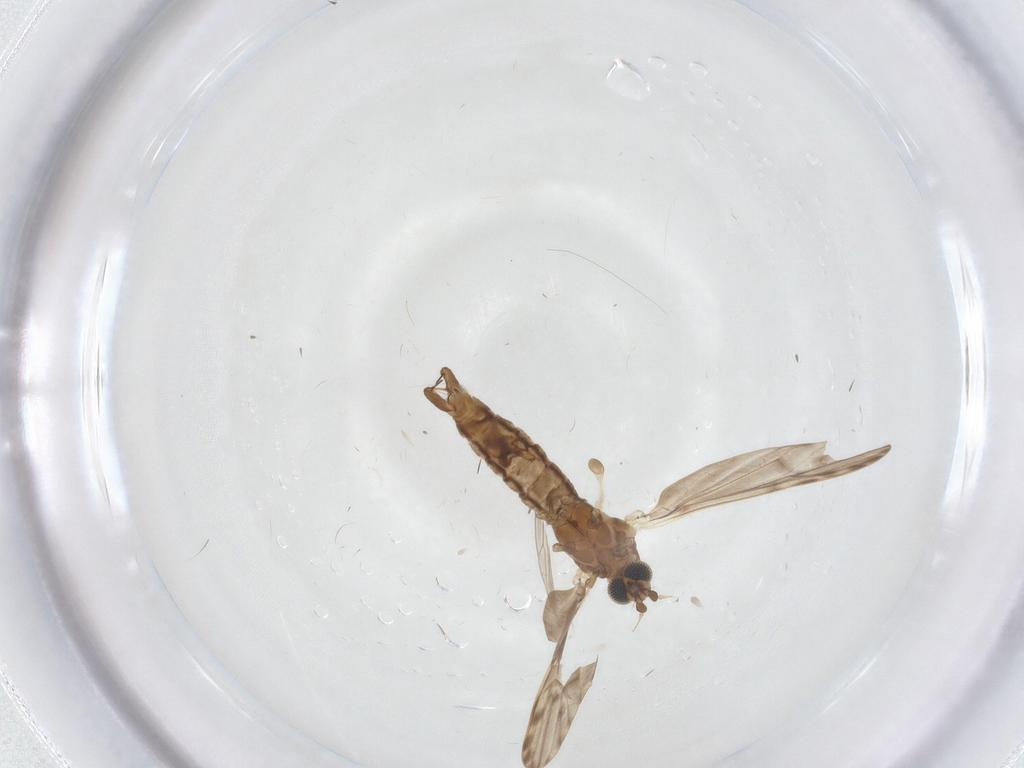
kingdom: Animalia
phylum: Arthropoda
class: Insecta
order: Diptera
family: Limoniidae
